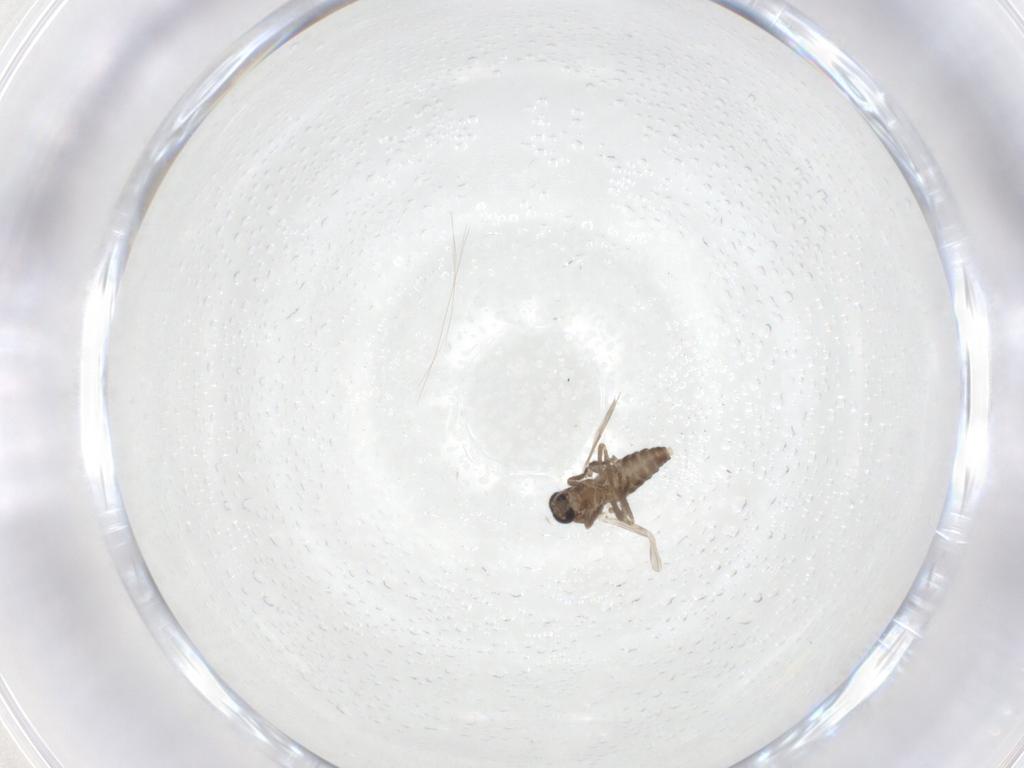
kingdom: Animalia
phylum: Arthropoda
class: Insecta
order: Diptera
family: Ceratopogonidae
